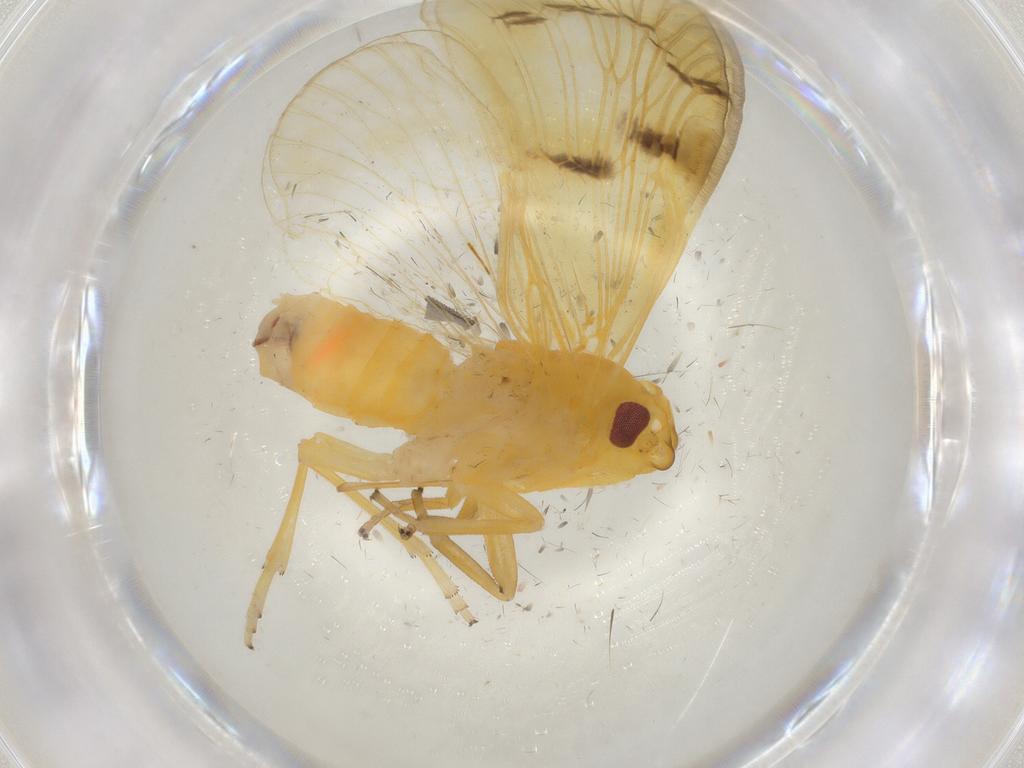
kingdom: Animalia
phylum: Arthropoda
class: Insecta
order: Hemiptera
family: Cixiidae
